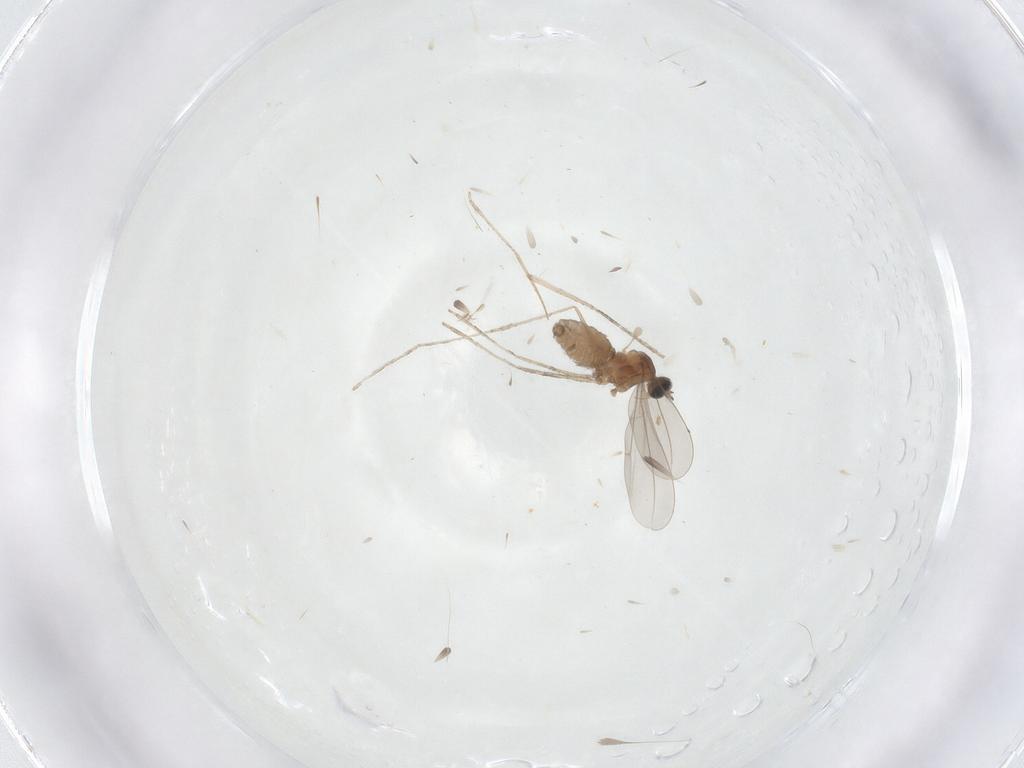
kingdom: Animalia
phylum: Arthropoda
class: Insecta
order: Diptera
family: Cecidomyiidae
